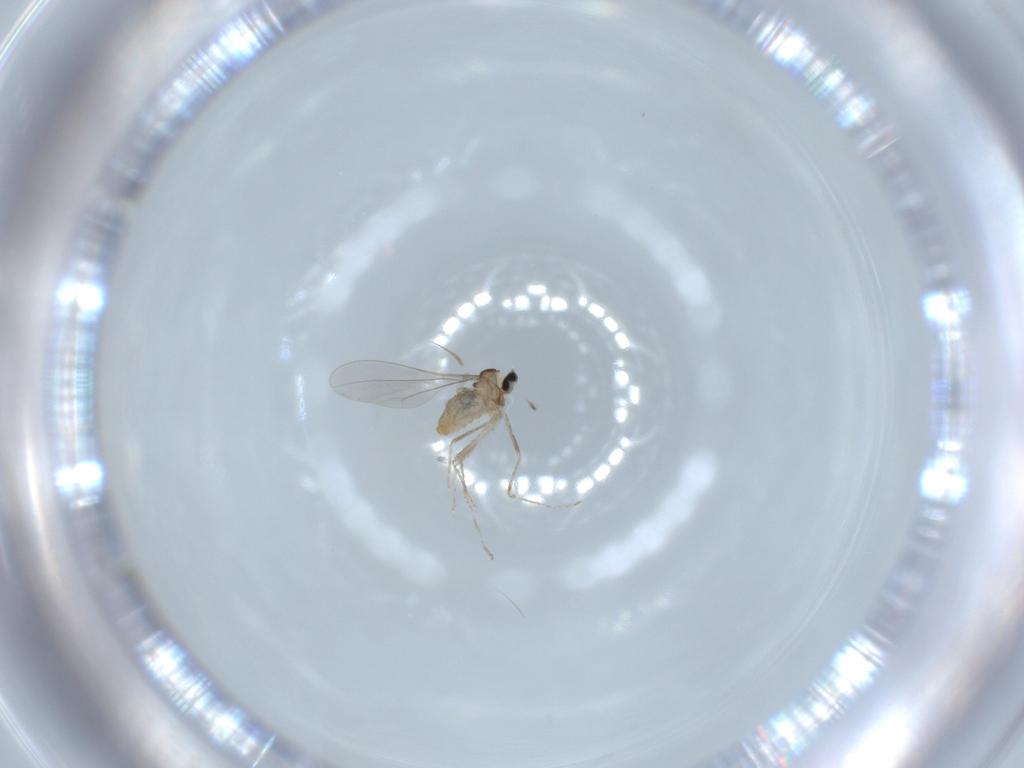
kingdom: Animalia
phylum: Arthropoda
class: Insecta
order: Diptera
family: Cecidomyiidae
